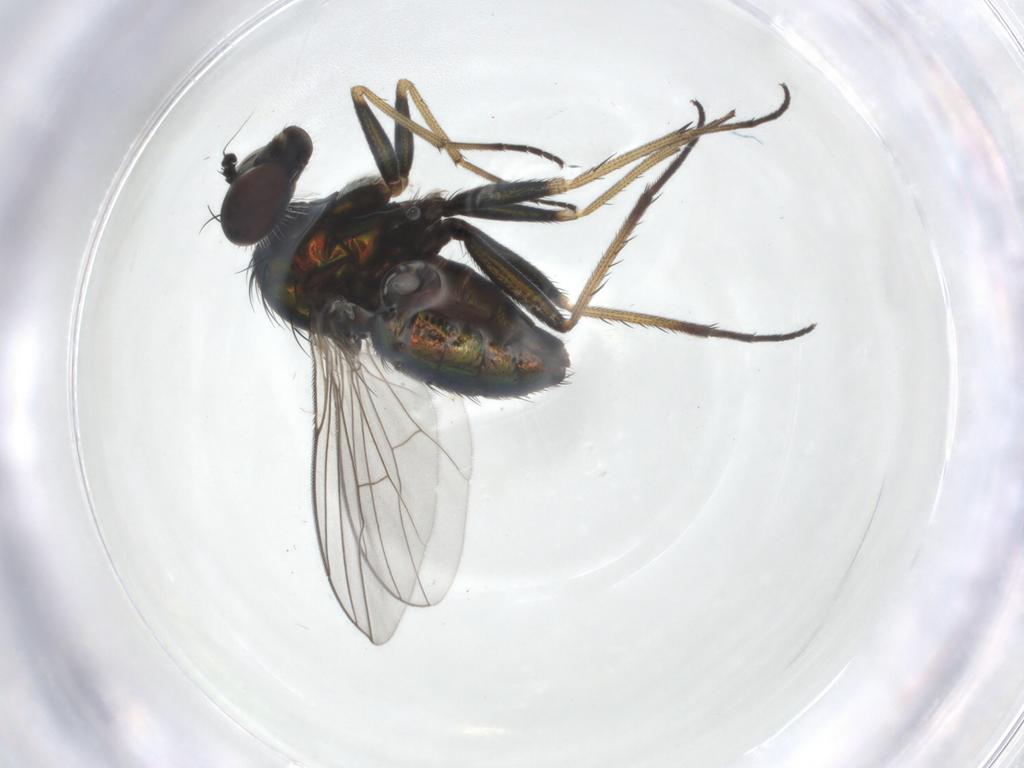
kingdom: Animalia
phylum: Arthropoda
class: Insecta
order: Diptera
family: Dolichopodidae
